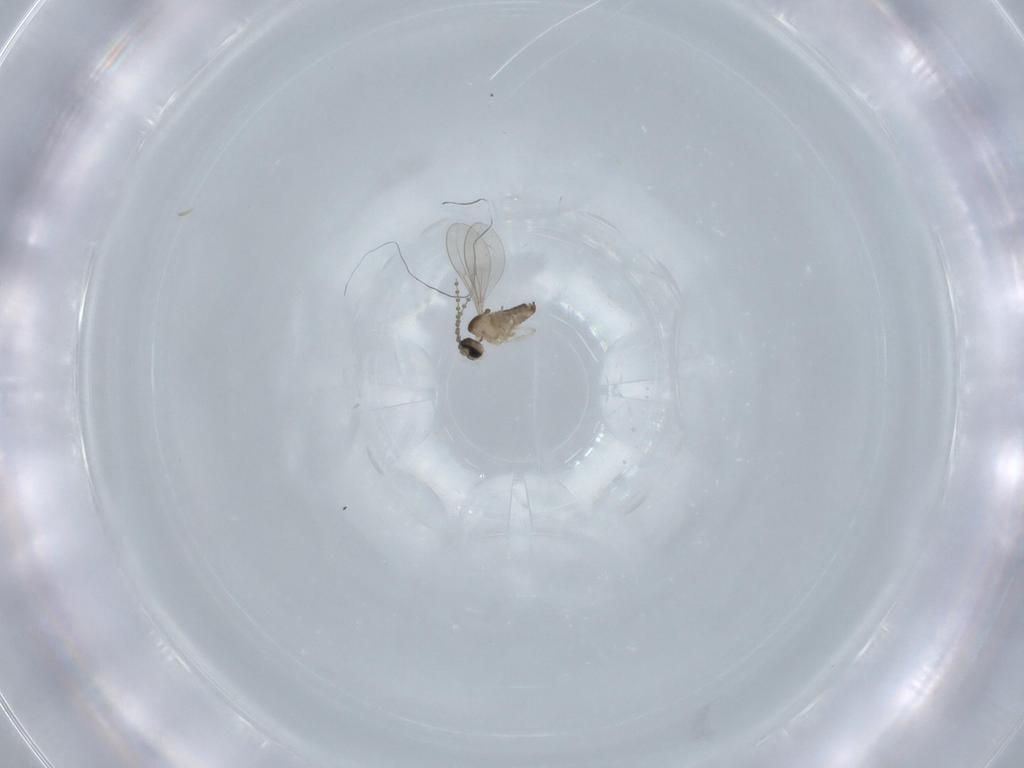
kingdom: Animalia
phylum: Arthropoda
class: Insecta
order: Diptera
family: Cecidomyiidae
